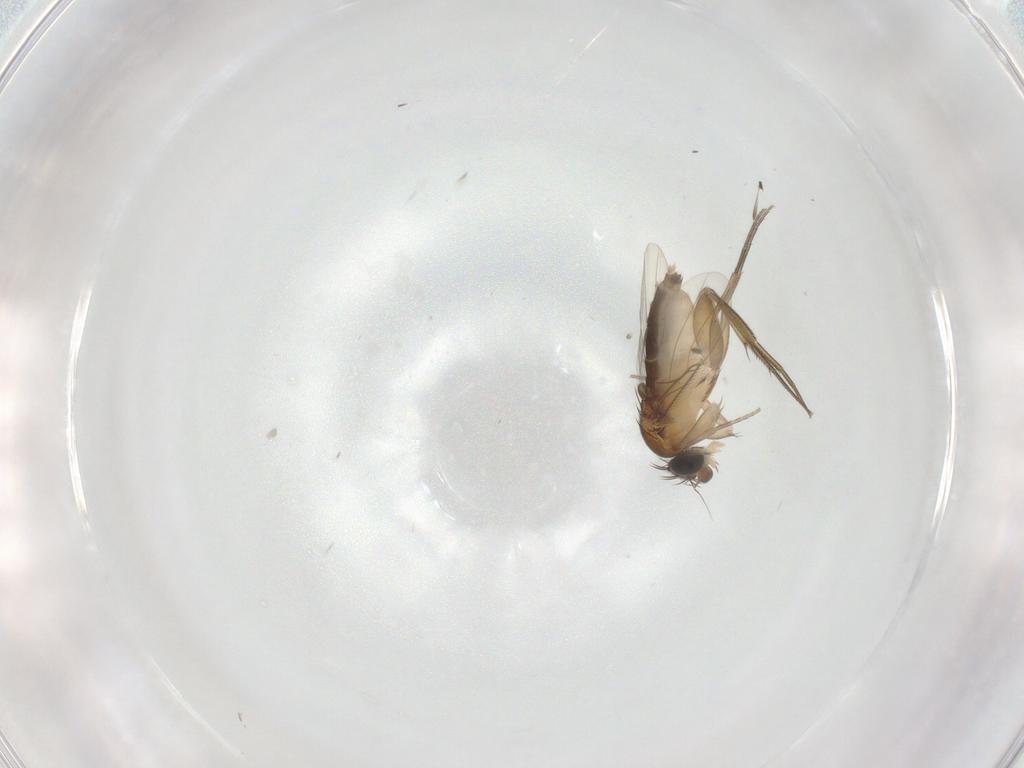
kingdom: Animalia
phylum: Arthropoda
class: Insecta
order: Diptera
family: Phoridae
